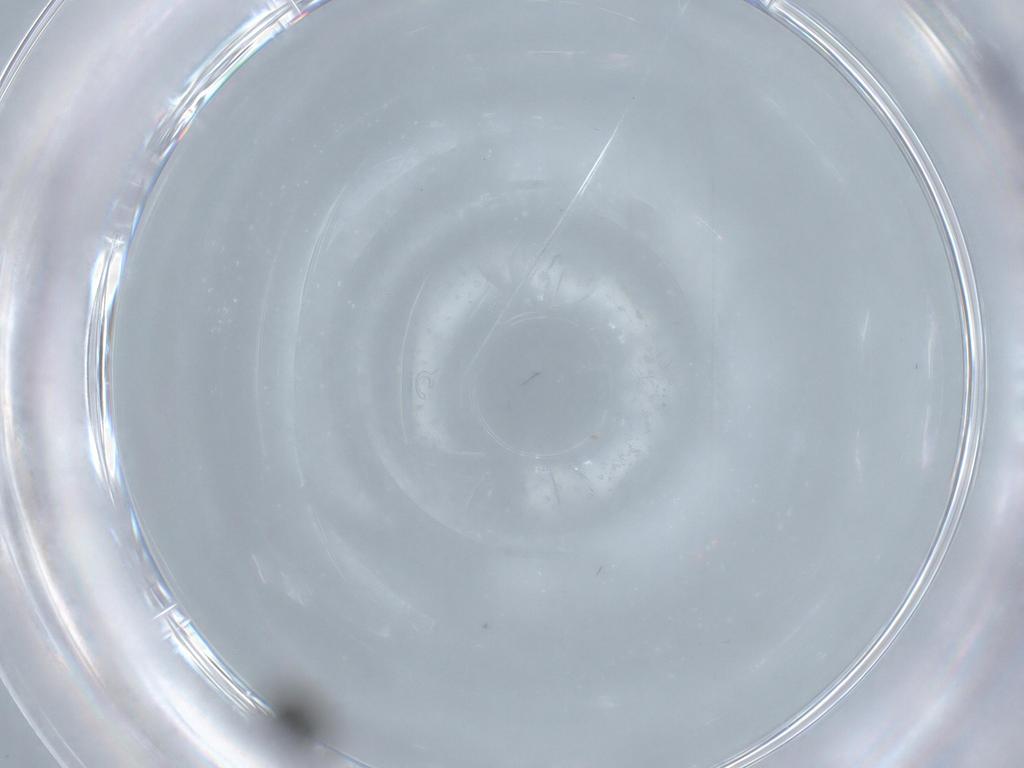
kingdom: Animalia
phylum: Arthropoda
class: Insecta
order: Diptera
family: Ceratopogonidae
